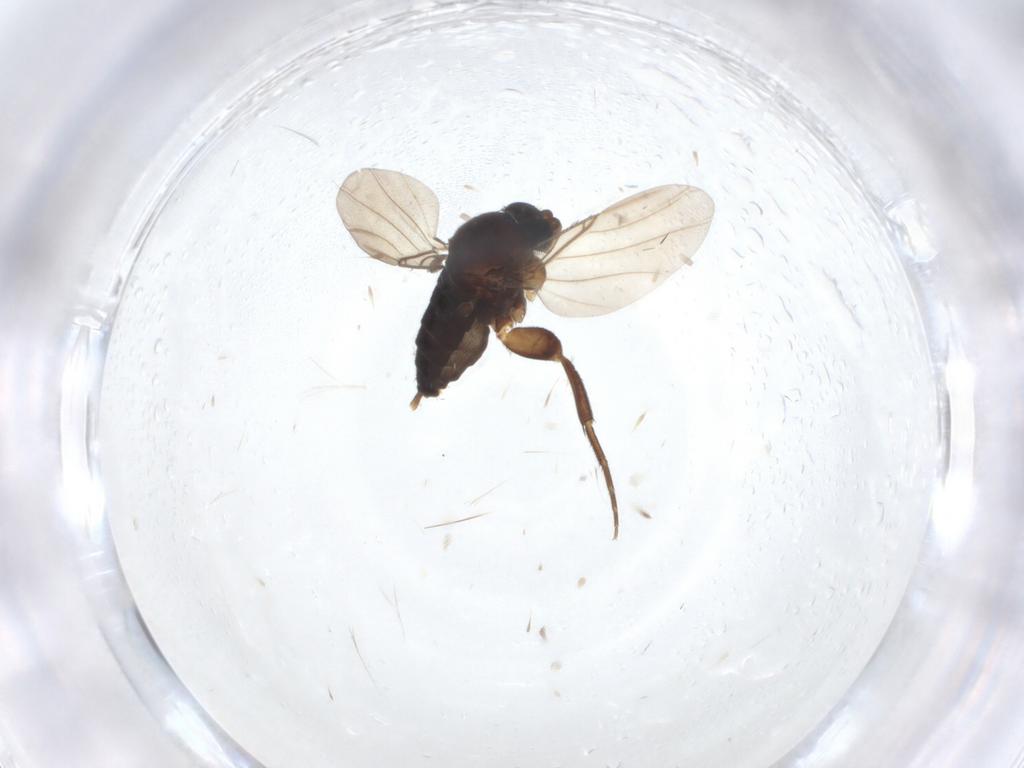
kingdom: Animalia
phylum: Arthropoda
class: Insecta
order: Diptera
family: Phoridae
